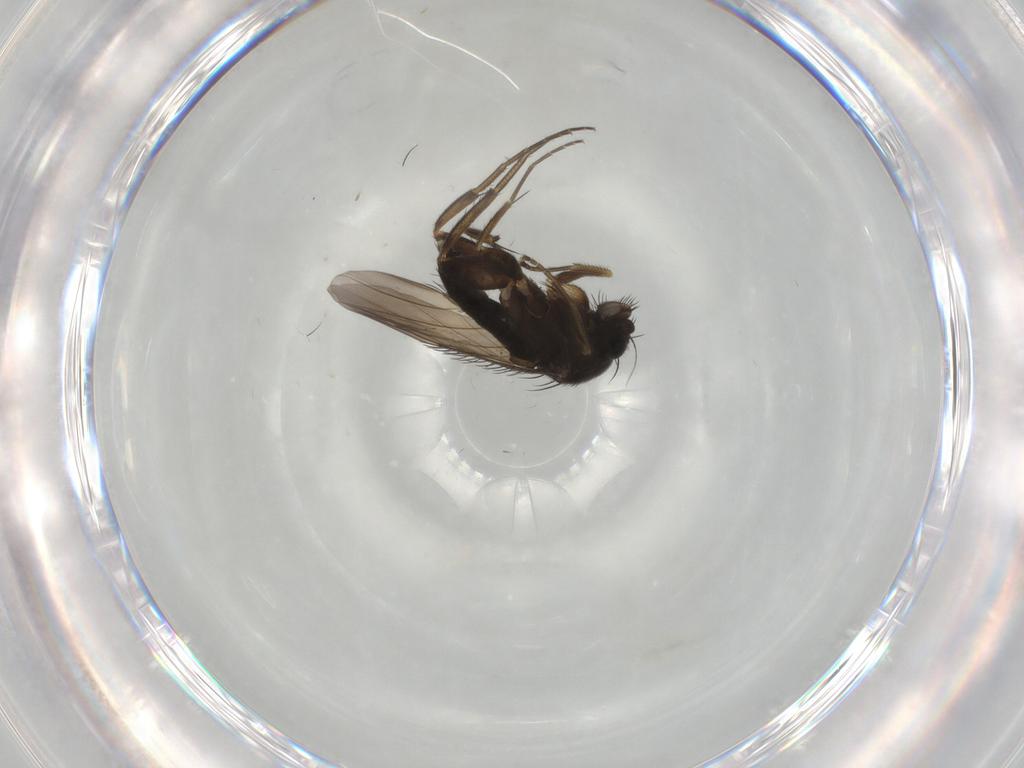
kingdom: Animalia
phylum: Arthropoda
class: Insecta
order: Diptera
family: Phoridae
